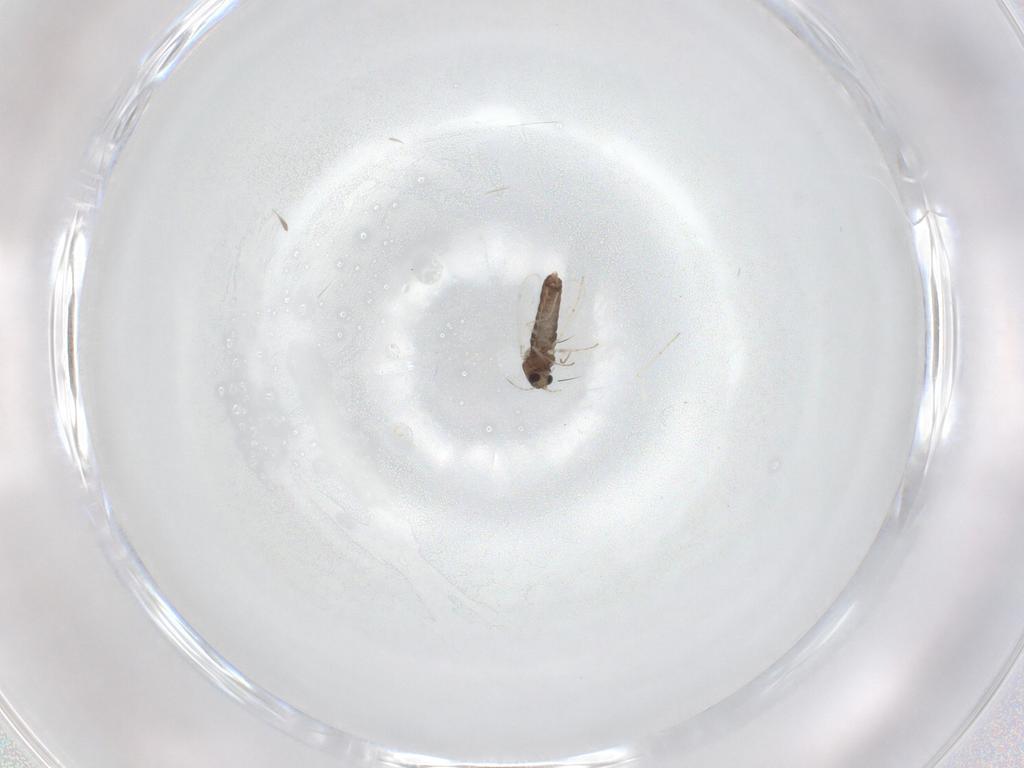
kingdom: Animalia
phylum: Arthropoda
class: Insecta
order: Diptera
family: Chironomidae
